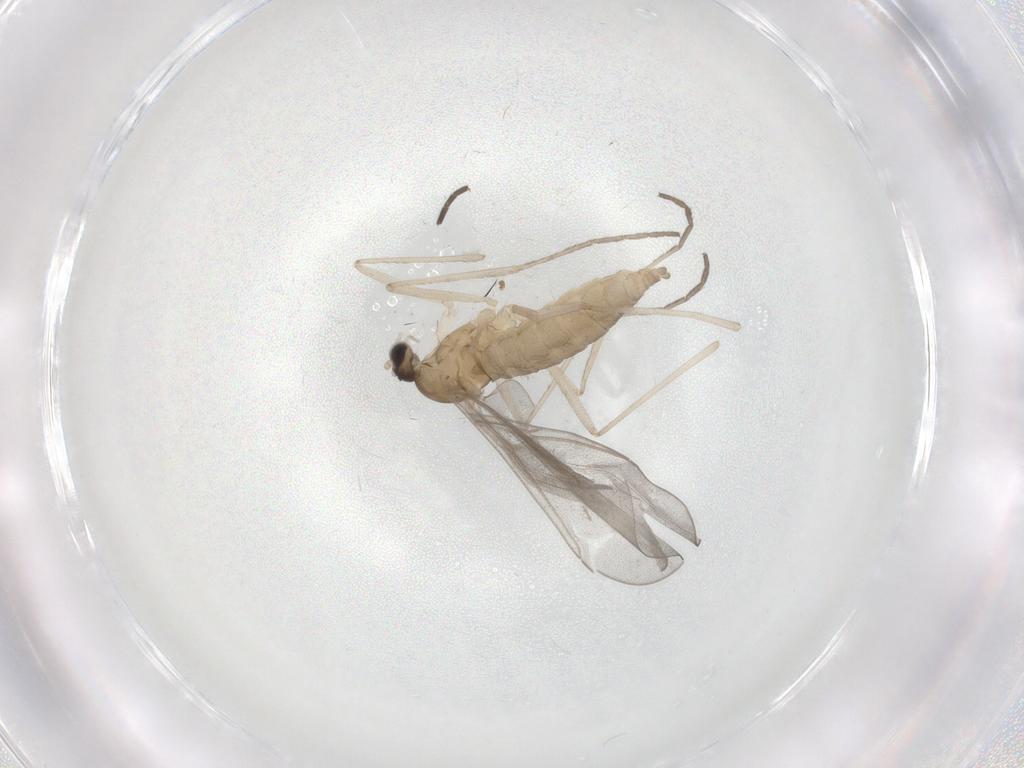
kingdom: Animalia
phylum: Arthropoda
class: Insecta
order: Diptera
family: Cecidomyiidae
